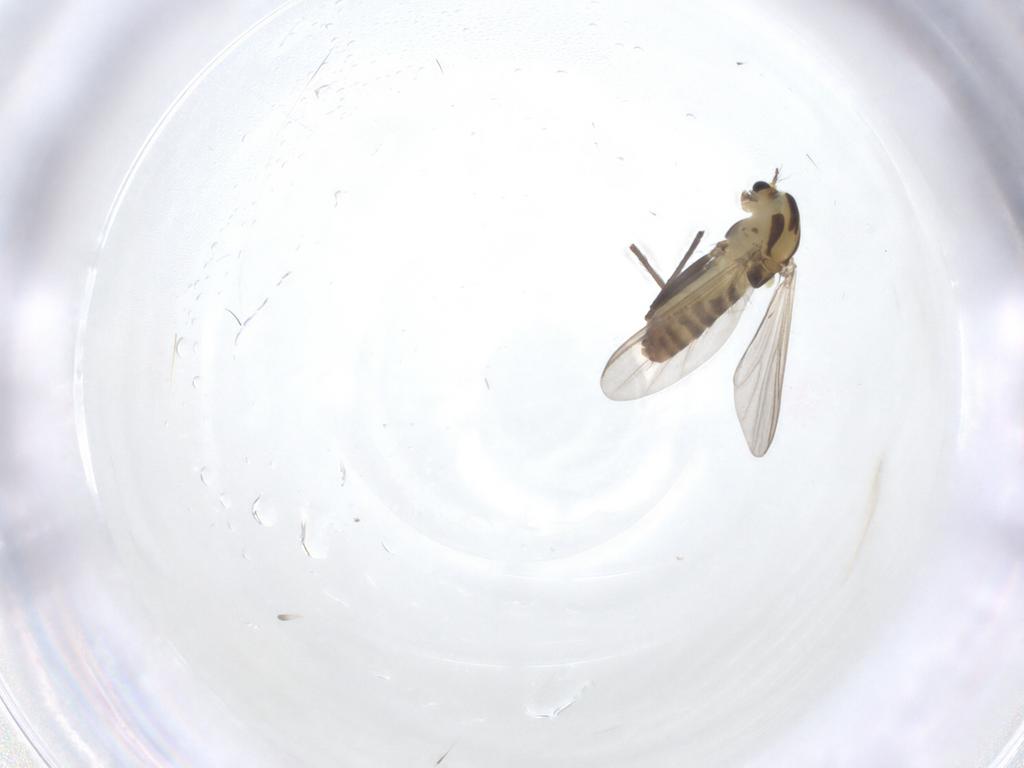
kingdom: Animalia
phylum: Arthropoda
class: Insecta
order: Diptera
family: Chironomidae
